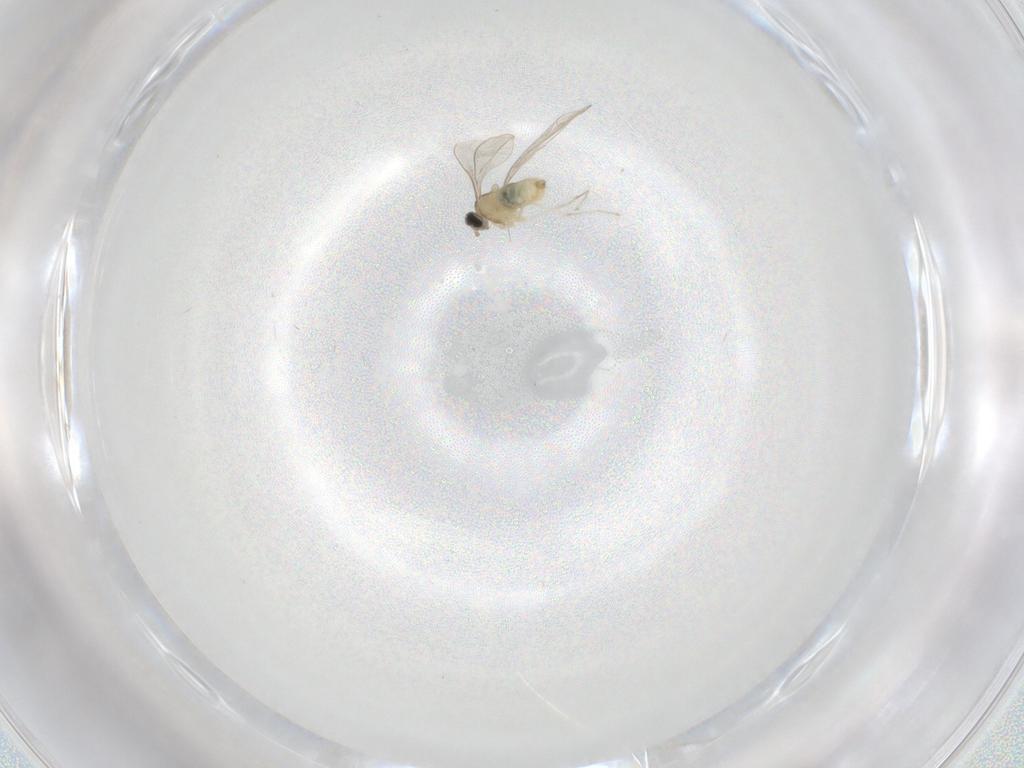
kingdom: Animalia
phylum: Arthropoda
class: Insecta
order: Diptera
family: Cecidomyiidae
